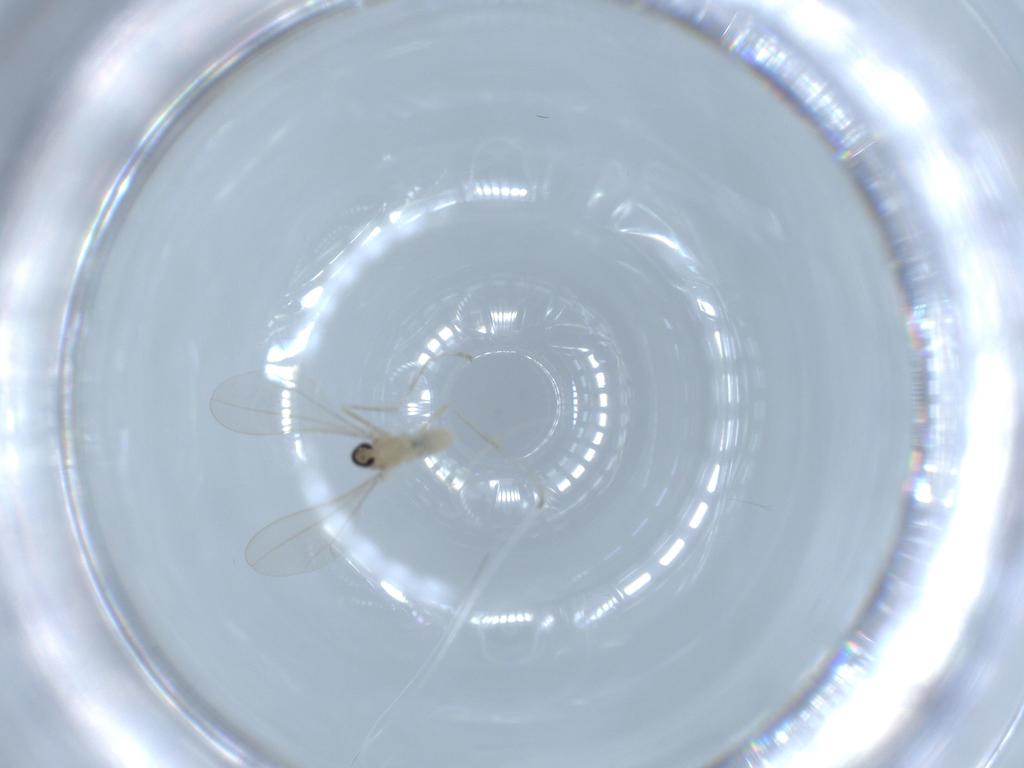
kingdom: Animalia
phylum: Arthropoda
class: Insecta
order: Diptera
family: Cecidomyiidae
